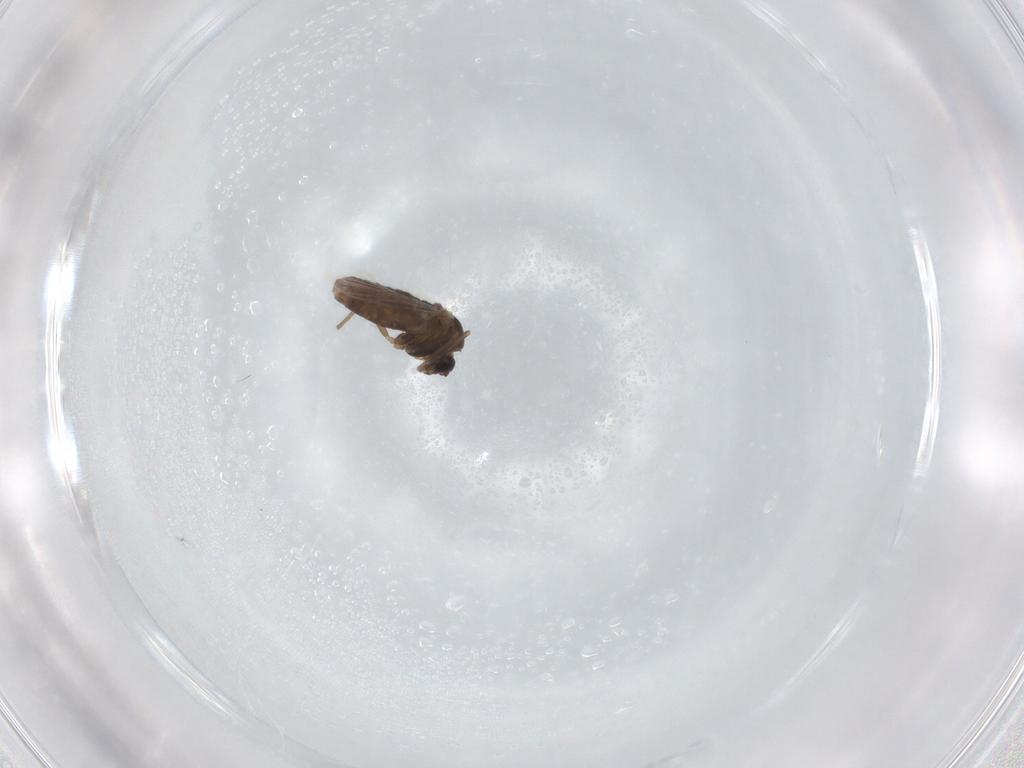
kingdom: Animalia
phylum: Arthropoda
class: Insecta
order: Diptera
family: Chironomidae
